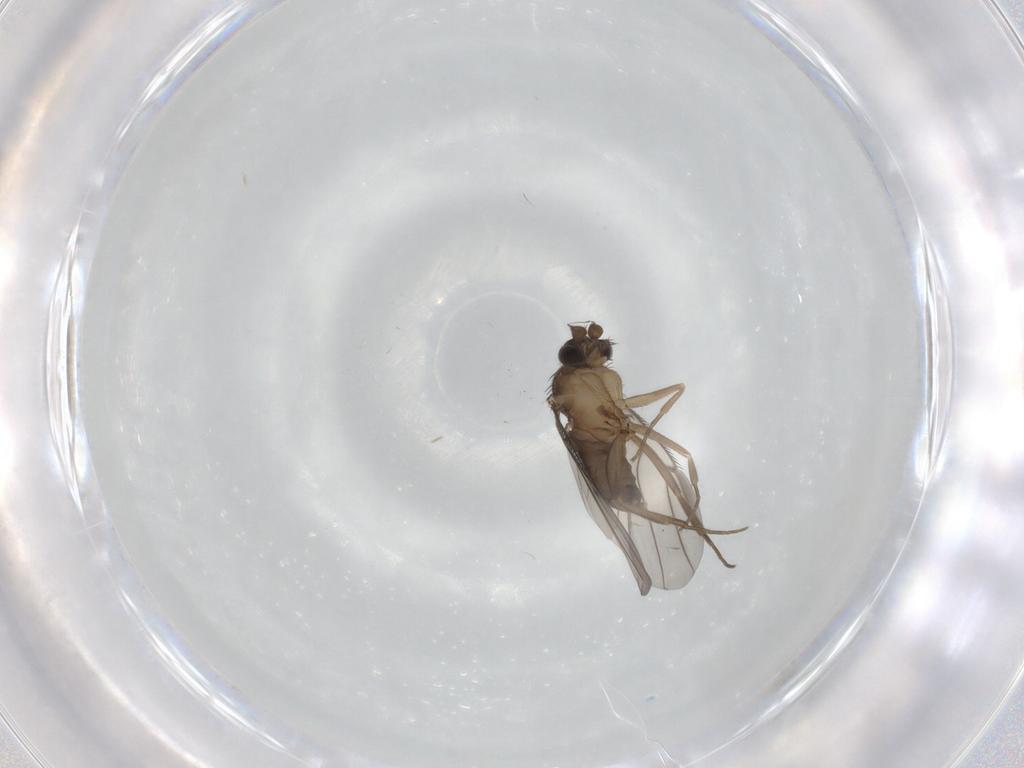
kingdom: Animalia
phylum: Arthropoda
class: Insecta
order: Diptera
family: Phoridae
